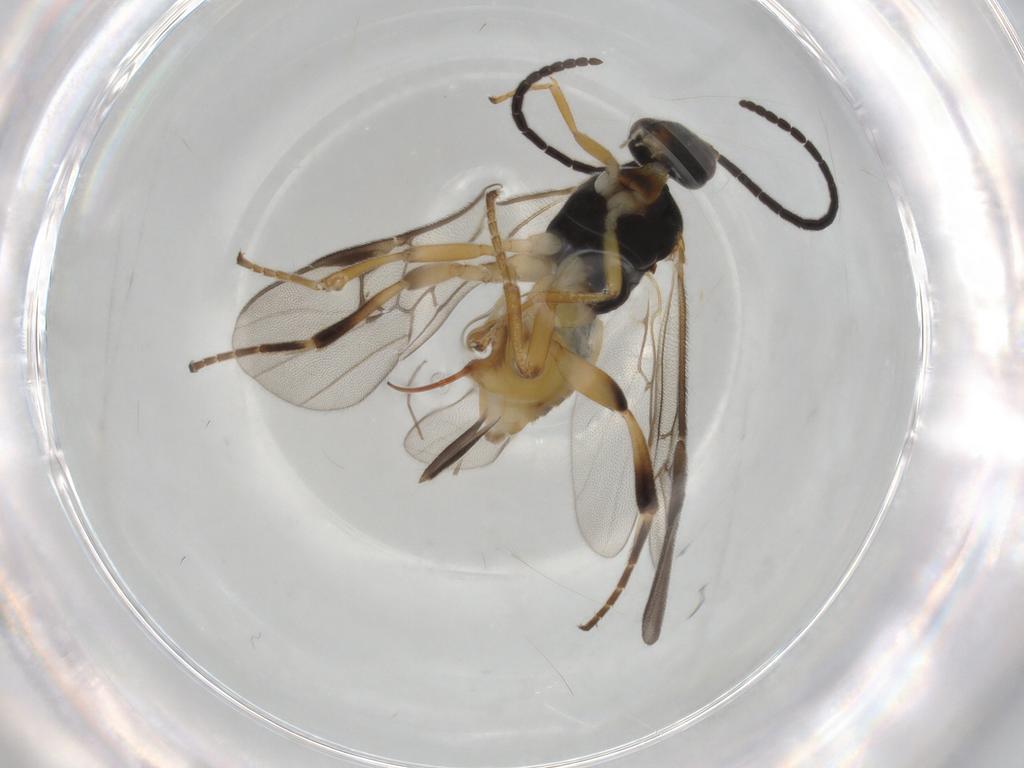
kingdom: Animalia
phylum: Arthropoda
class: Insecta
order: Hymenoptera
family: Braconidae
